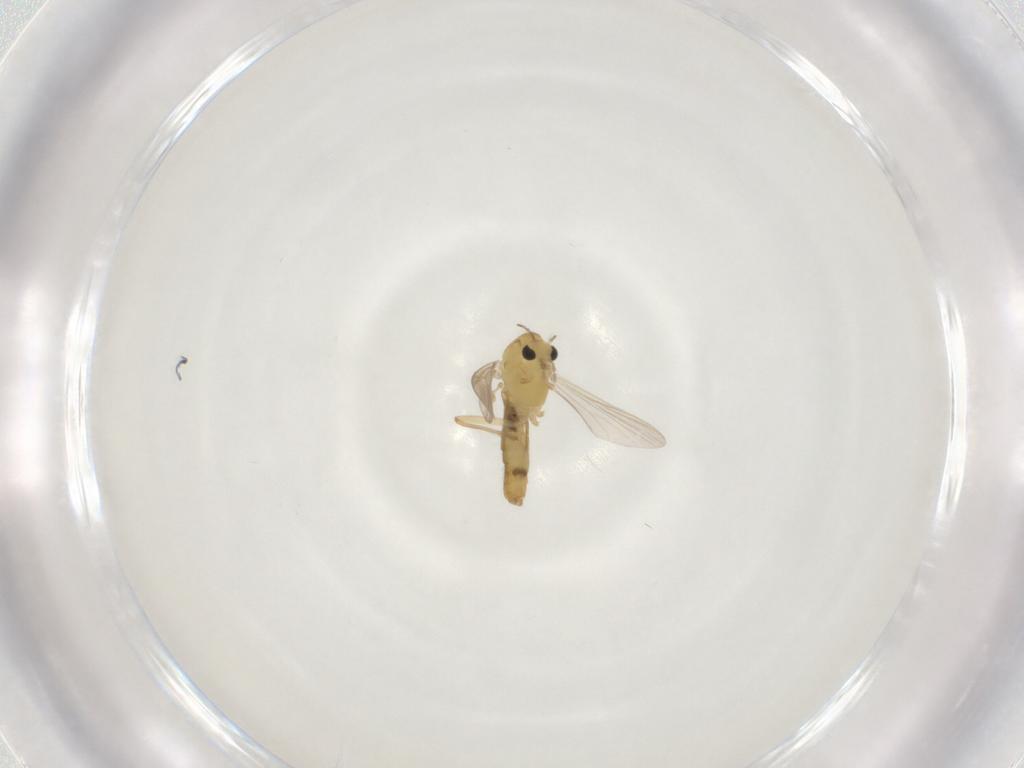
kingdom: Animalia
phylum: Arthropoda
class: Insecta
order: Diptera
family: Chironomidae
